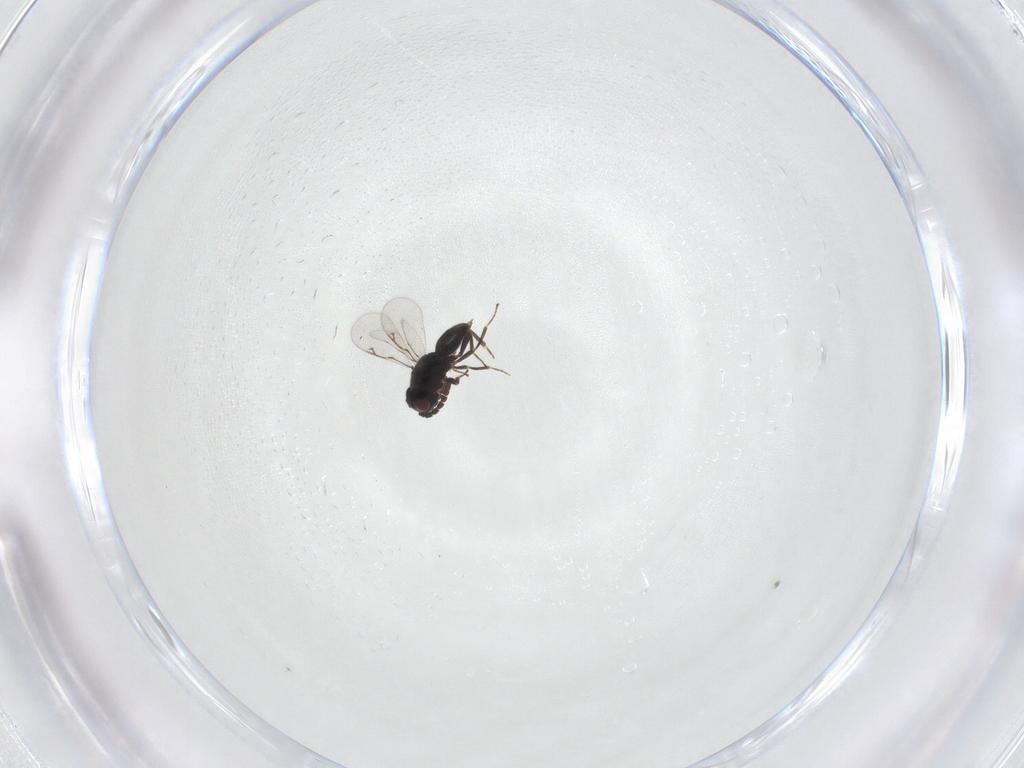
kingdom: Animalia
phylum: Arthropoda
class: Insecta
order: Hymenoptera
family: Eunotidae
